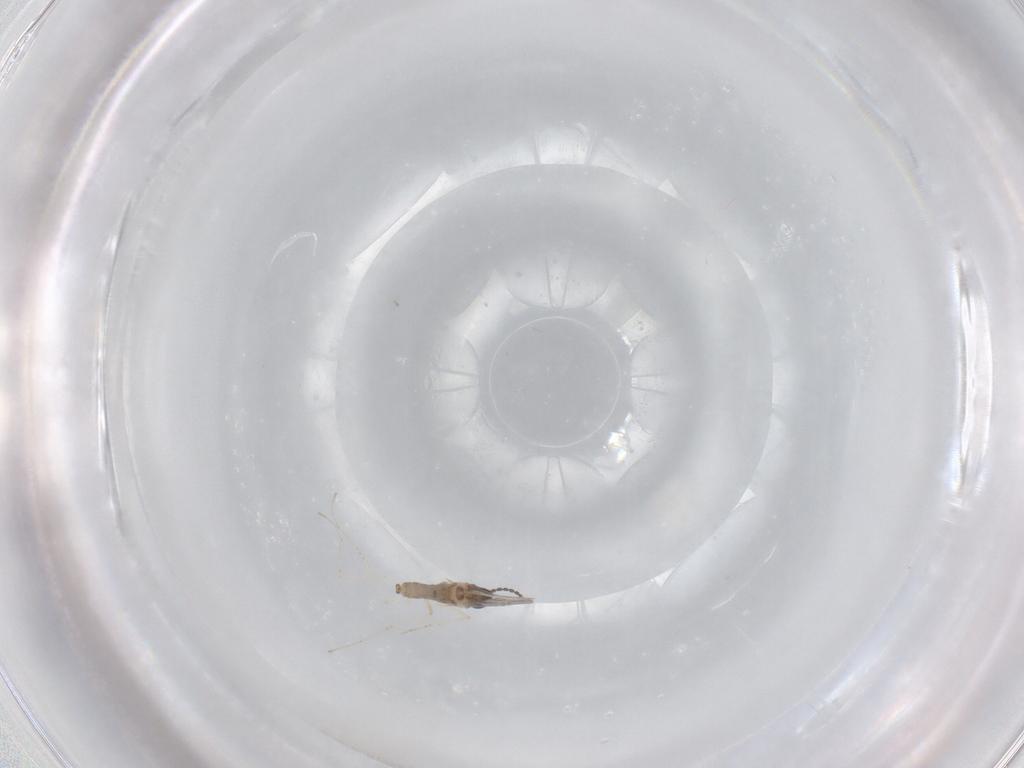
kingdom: Animalia
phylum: Arthropoda
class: Insecta
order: Diptera
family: Cecidomyiidae
